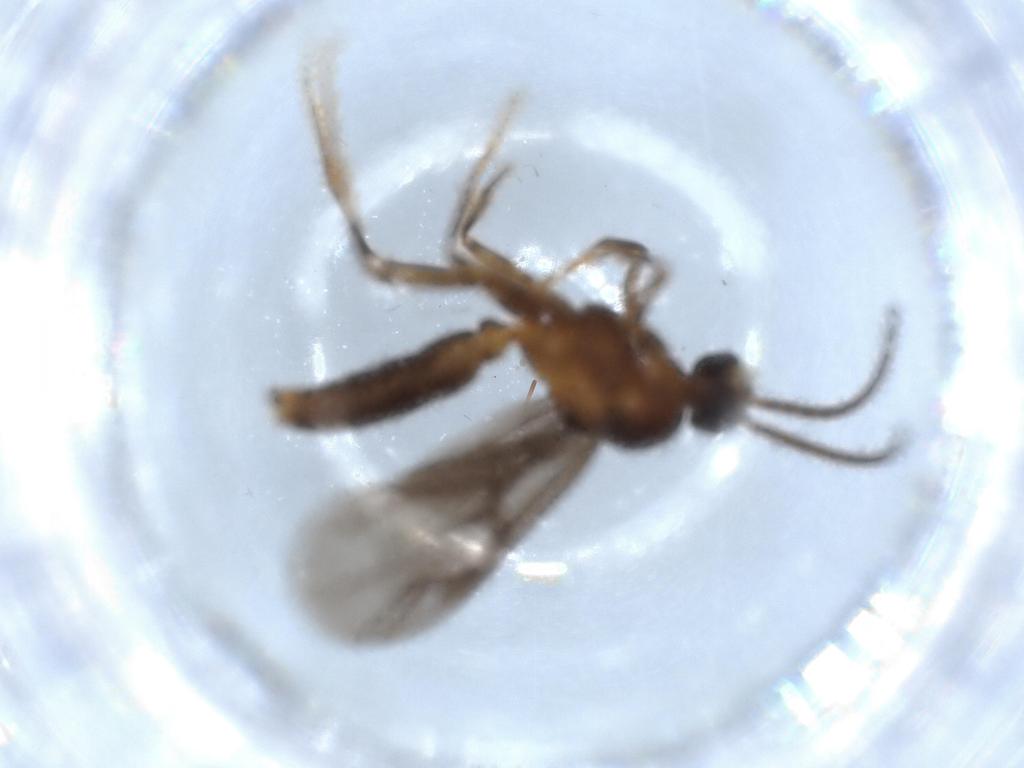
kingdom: Animalia
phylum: Arthropoda
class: Insecta
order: Hymenoptera
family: Formicidae
